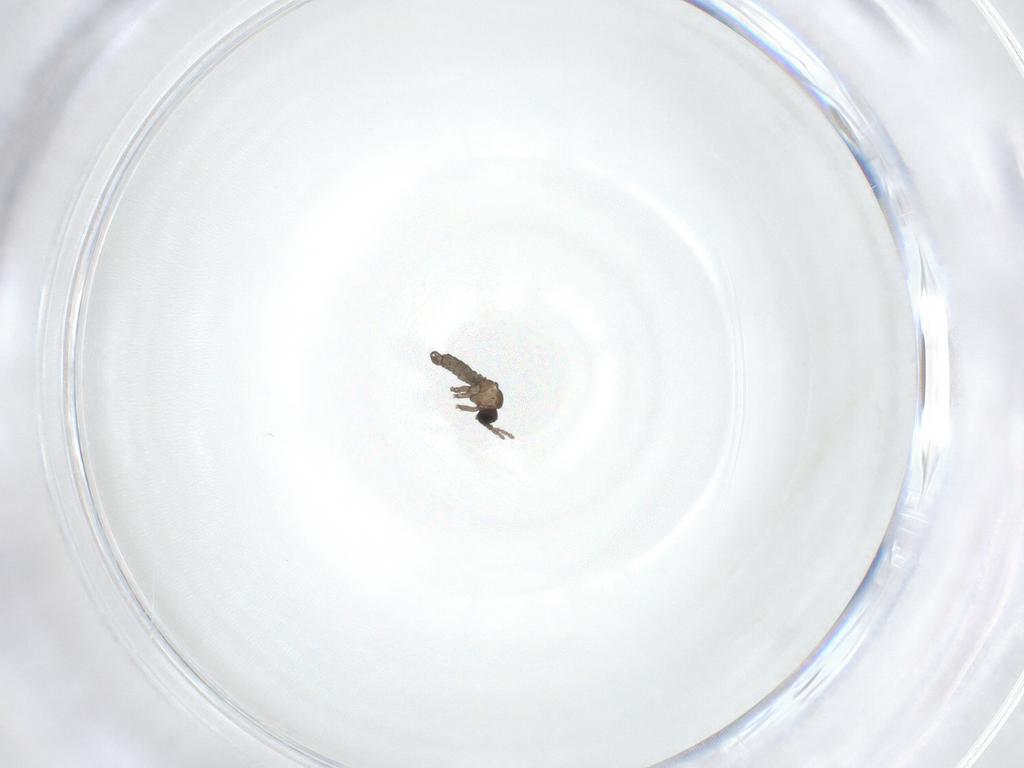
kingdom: Animalia
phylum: Arthropoda
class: Insecta
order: Diptera
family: Sciaridae
